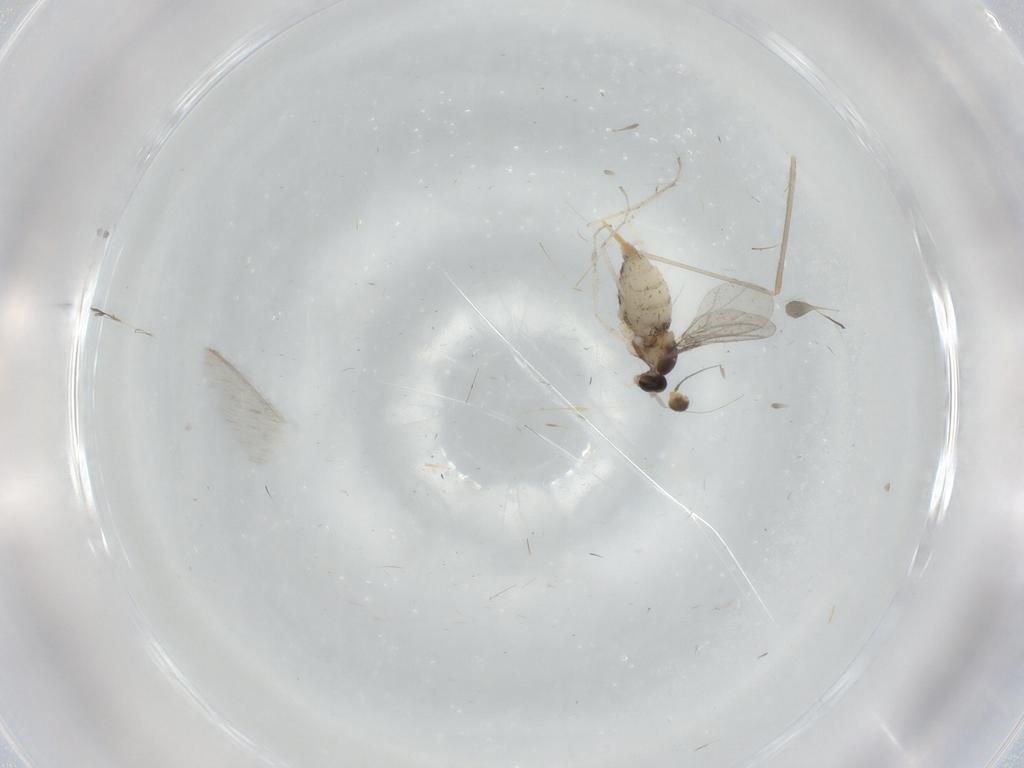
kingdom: Animalia
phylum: Arthropoda
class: Insecta
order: Diptera
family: Tephritidae
